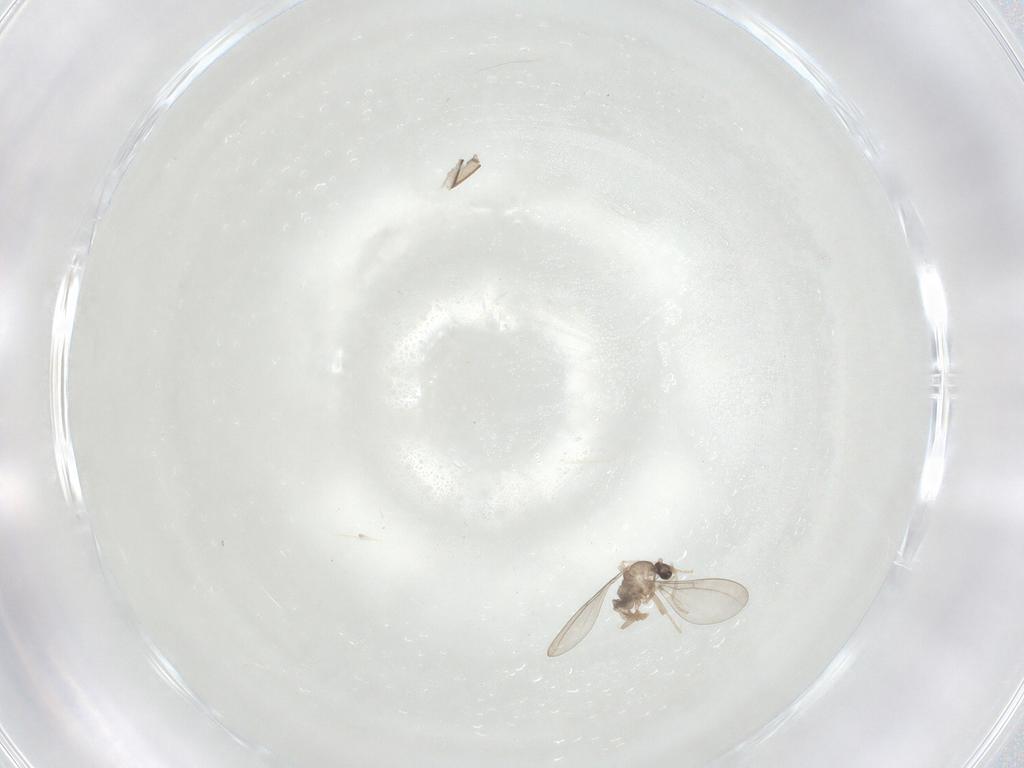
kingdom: Animalia
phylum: Arthropoda
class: Insecta
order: Diptera
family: Cecidomyiidae
